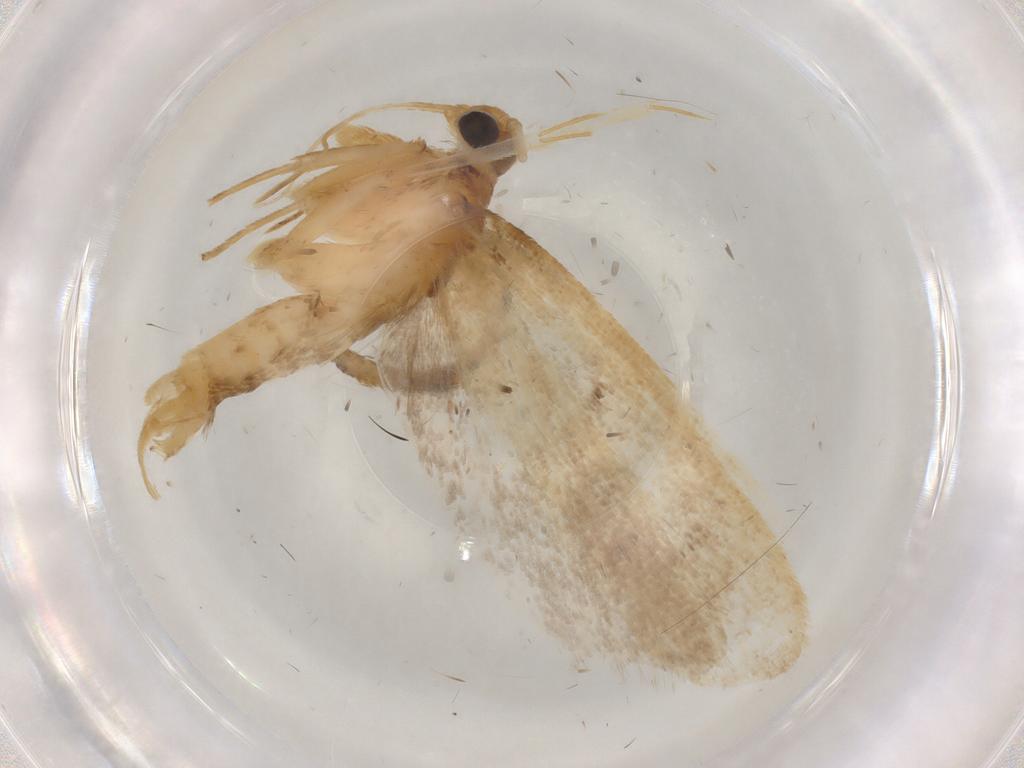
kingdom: Animalia
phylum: Arthropoda
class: Insecta
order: Lepidoptera
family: Lecithoceridae
